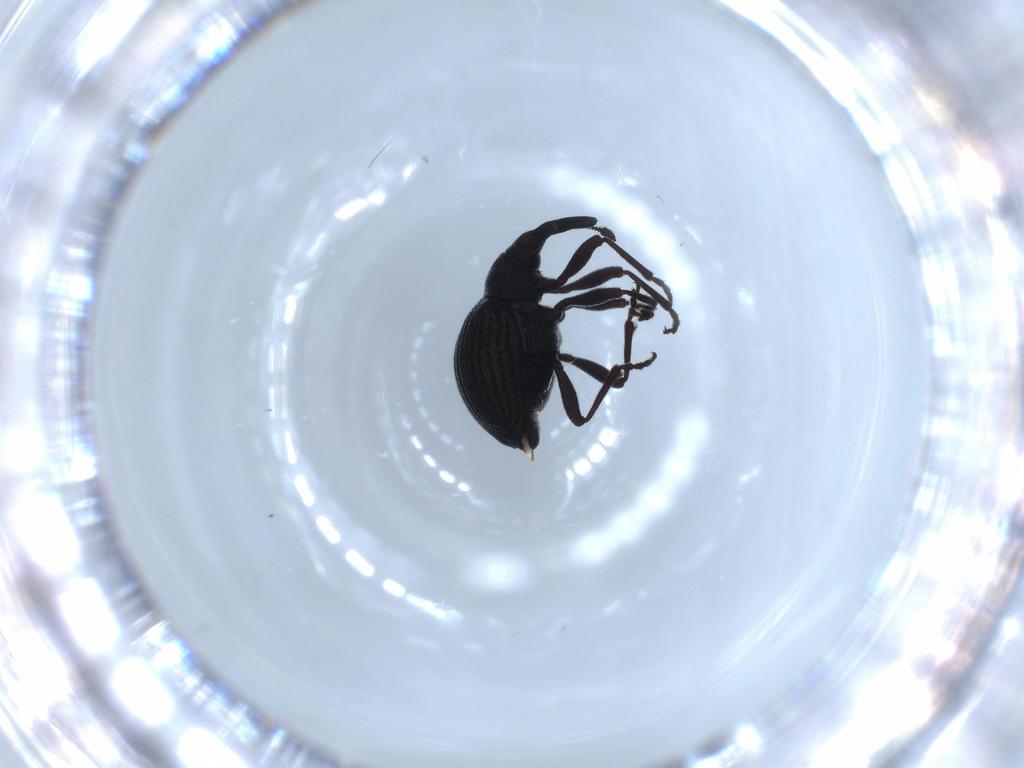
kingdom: Animalia
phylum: Arthropoda
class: Insecta
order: Coleoptera
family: Brentidae
